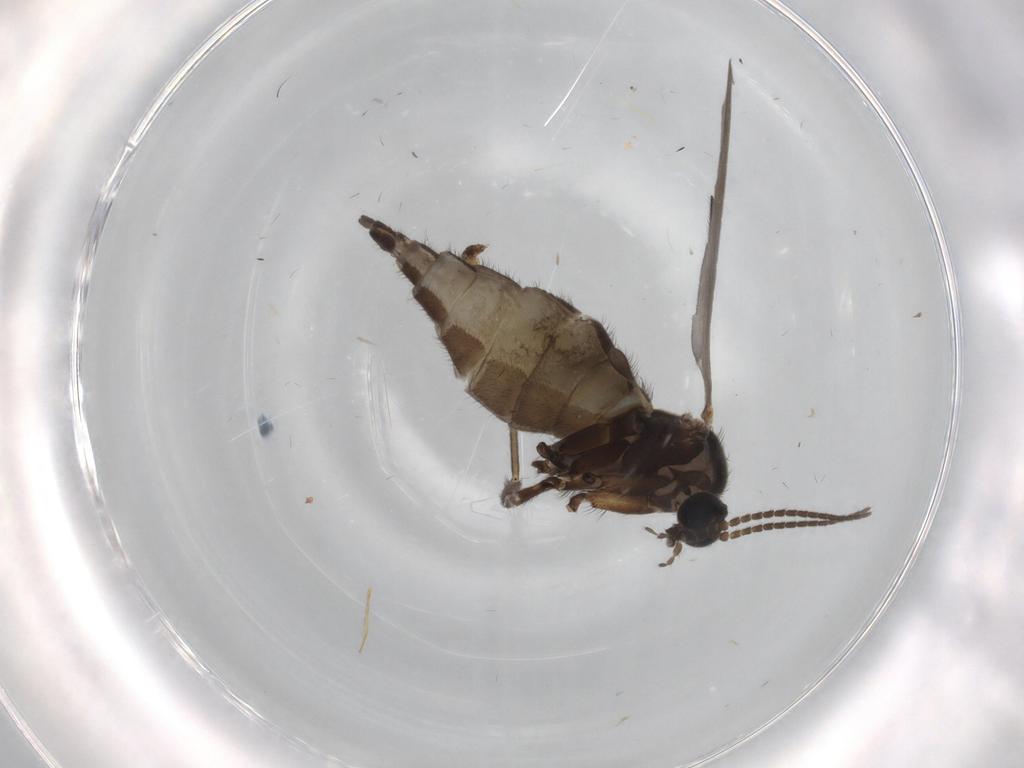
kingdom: Animalia
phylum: Arthropoda
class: Insecta
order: Diptera
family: Sciaridae
